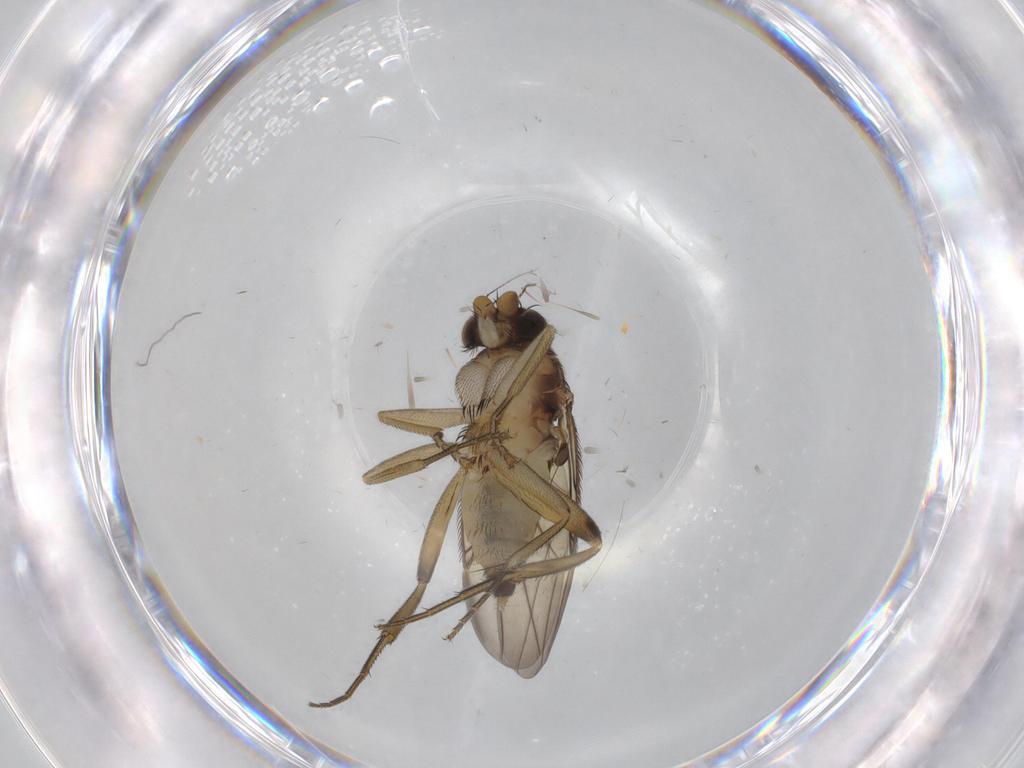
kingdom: Animalia
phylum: Arthropoda
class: Insecta
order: Diptera
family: Phoridae
